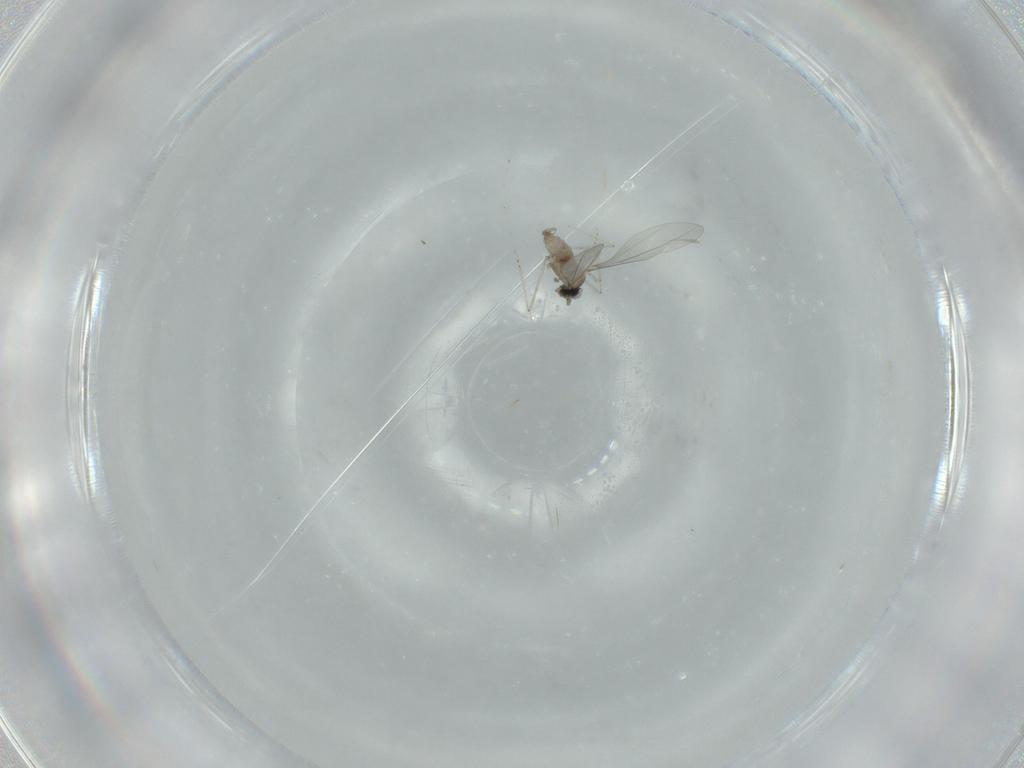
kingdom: Animalia
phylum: Arthropoda
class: Insecta
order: Diptera
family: Cecidomyiidae
